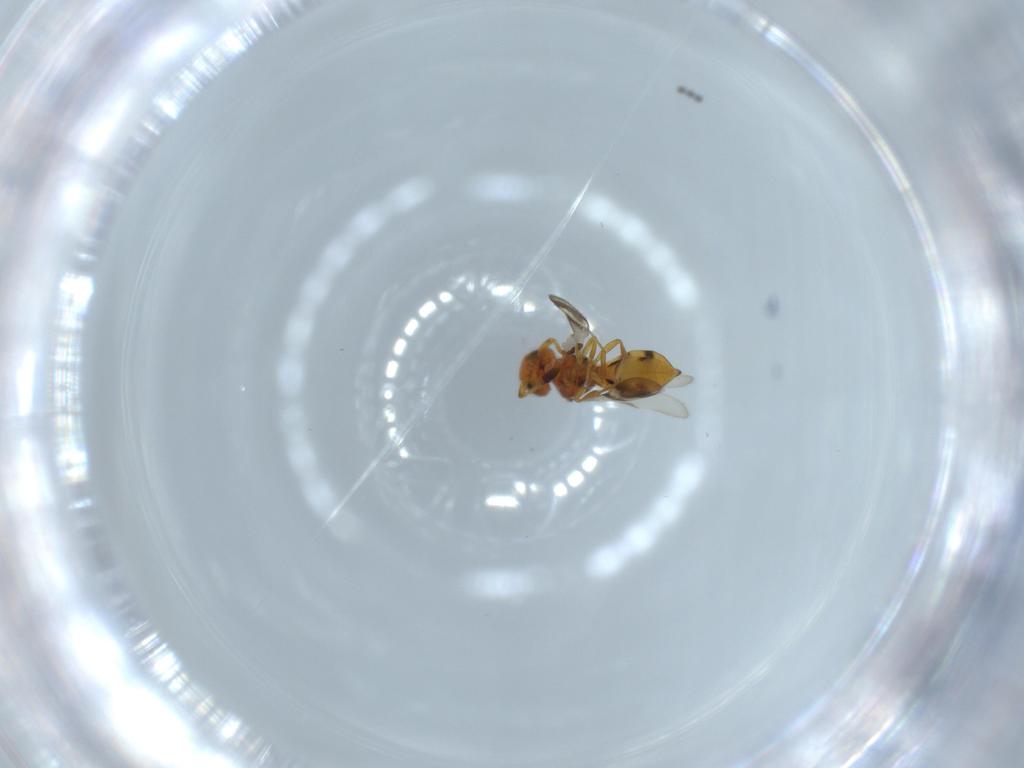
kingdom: Animalia
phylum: Arthropoda
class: Insecta
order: Hymenoptera
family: Scelionidae
